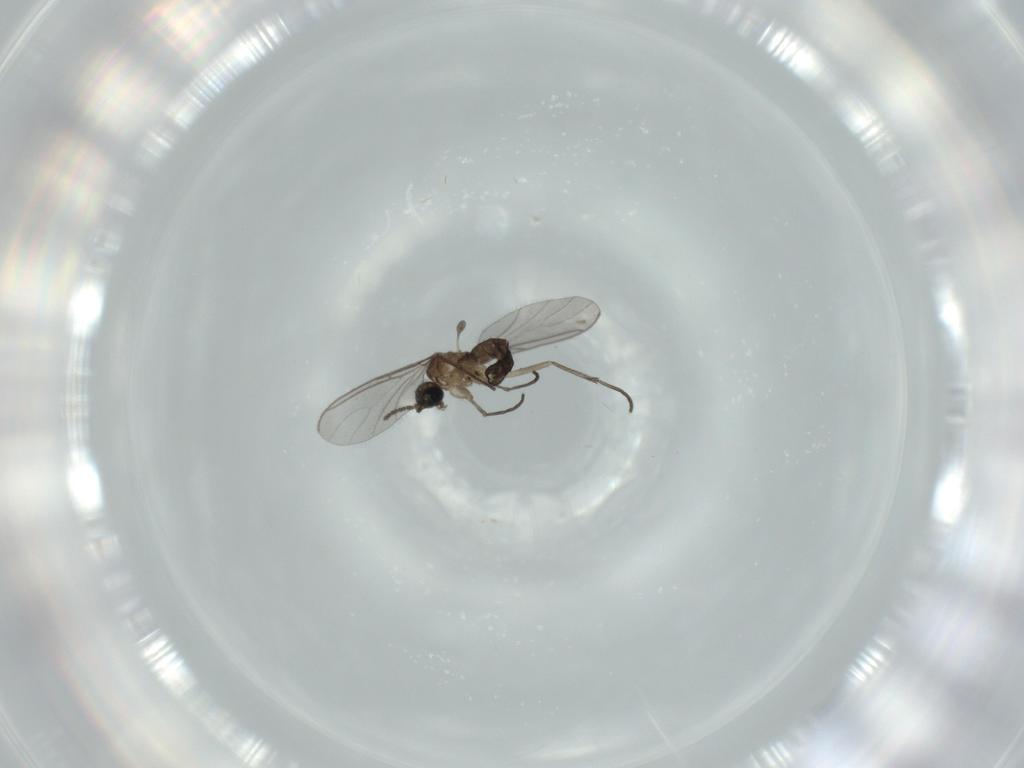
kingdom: Animalia
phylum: Arthropoda
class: Insecta
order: Diptera
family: Sciaridae
